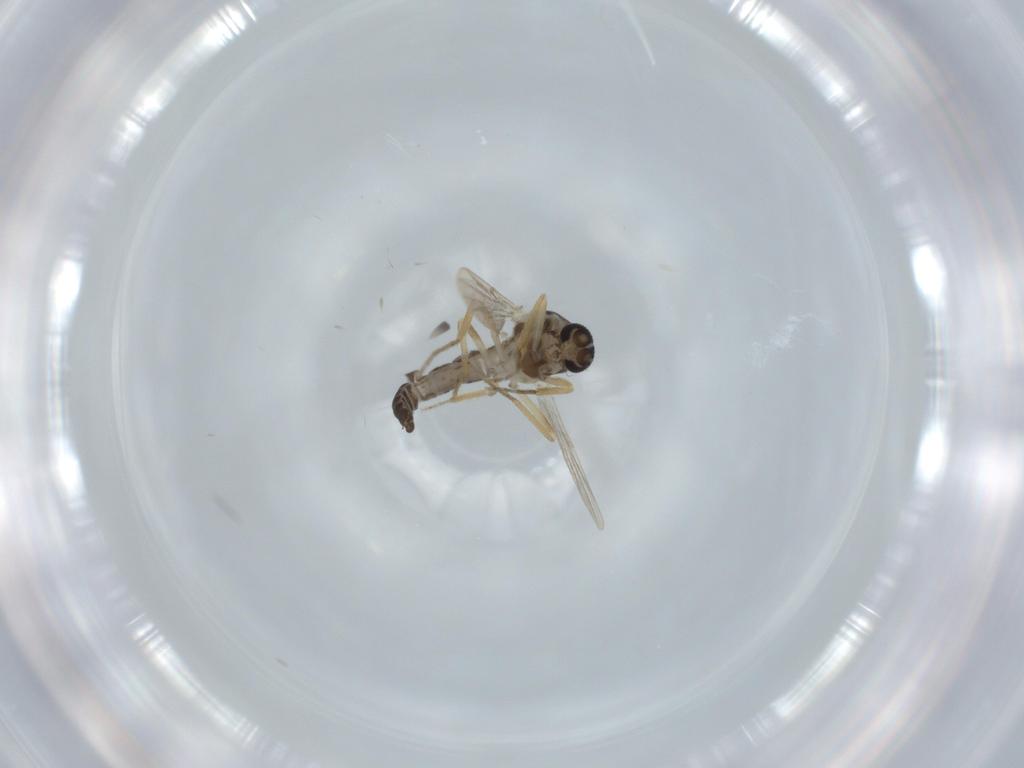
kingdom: Animalia
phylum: Arthropoda
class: Insecta
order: Diptera
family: Ceratopogonidae
